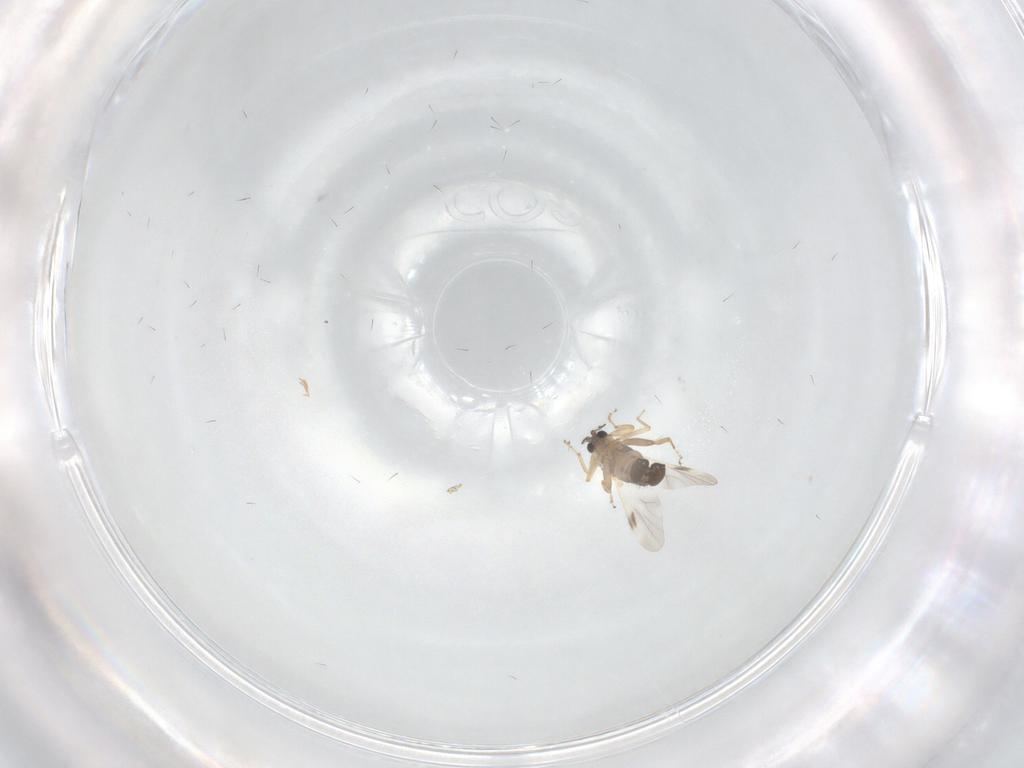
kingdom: Animalia
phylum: Arthropoda
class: Insecta
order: Diptera
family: Ceratopogonidae
